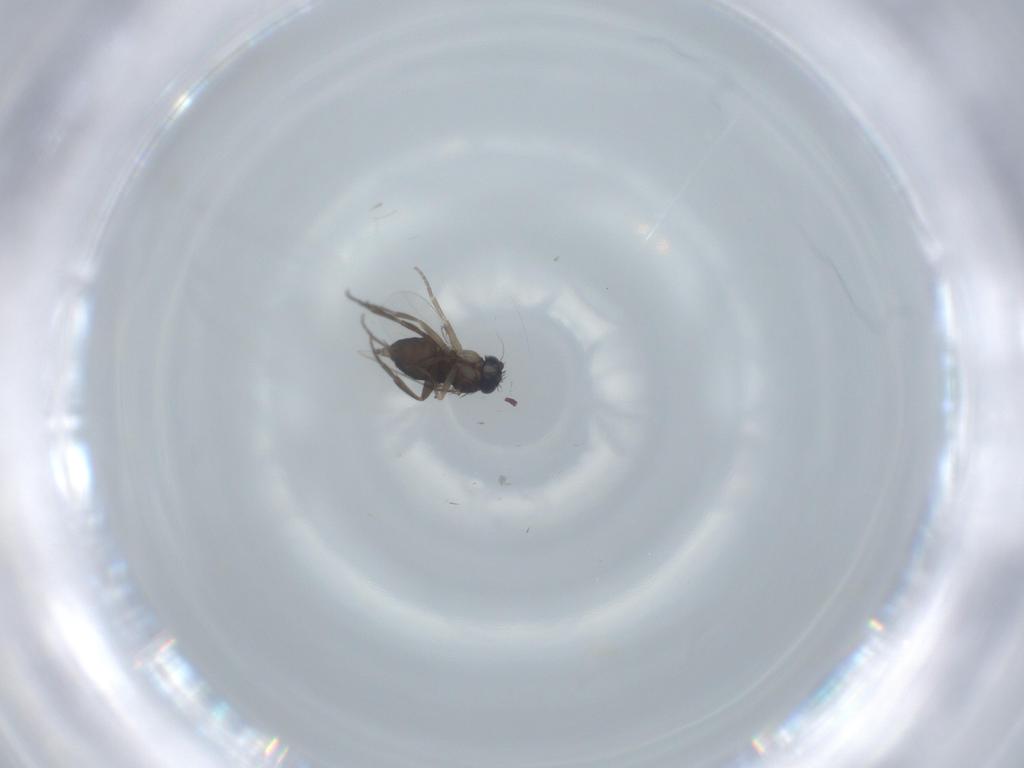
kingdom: Animalia
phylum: Arthropoda
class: Insecta
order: Diptera
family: Phoridae
